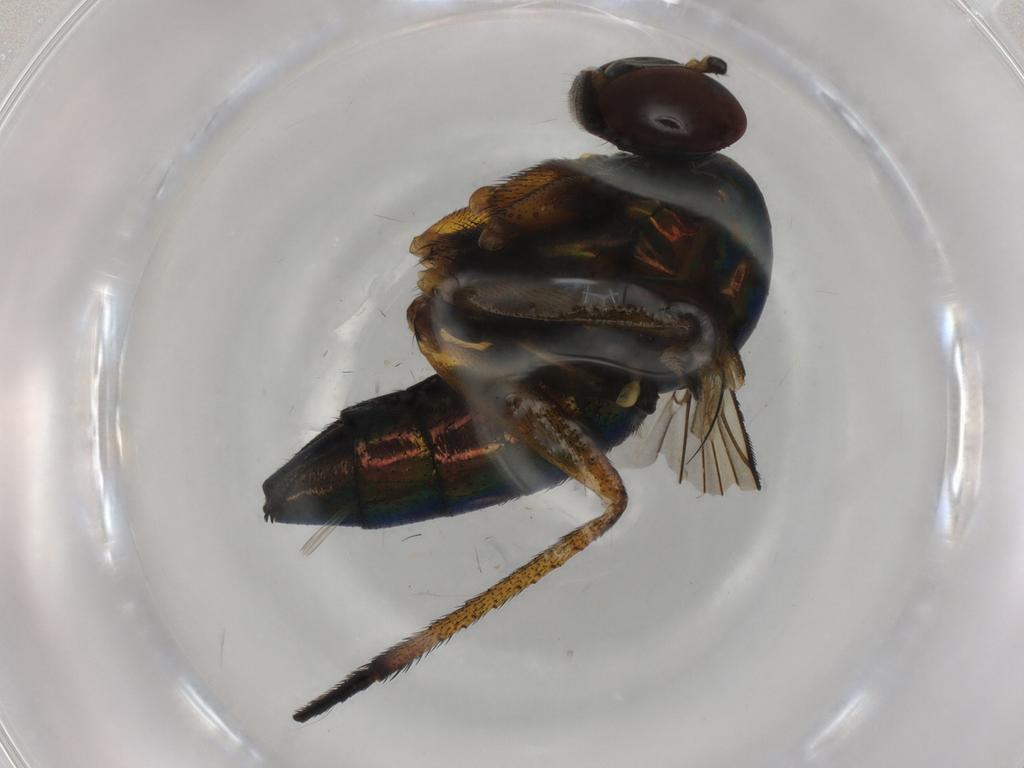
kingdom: Animalia
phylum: Arthropoda
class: Insecta
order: Diptera
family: Dolichopodidae
